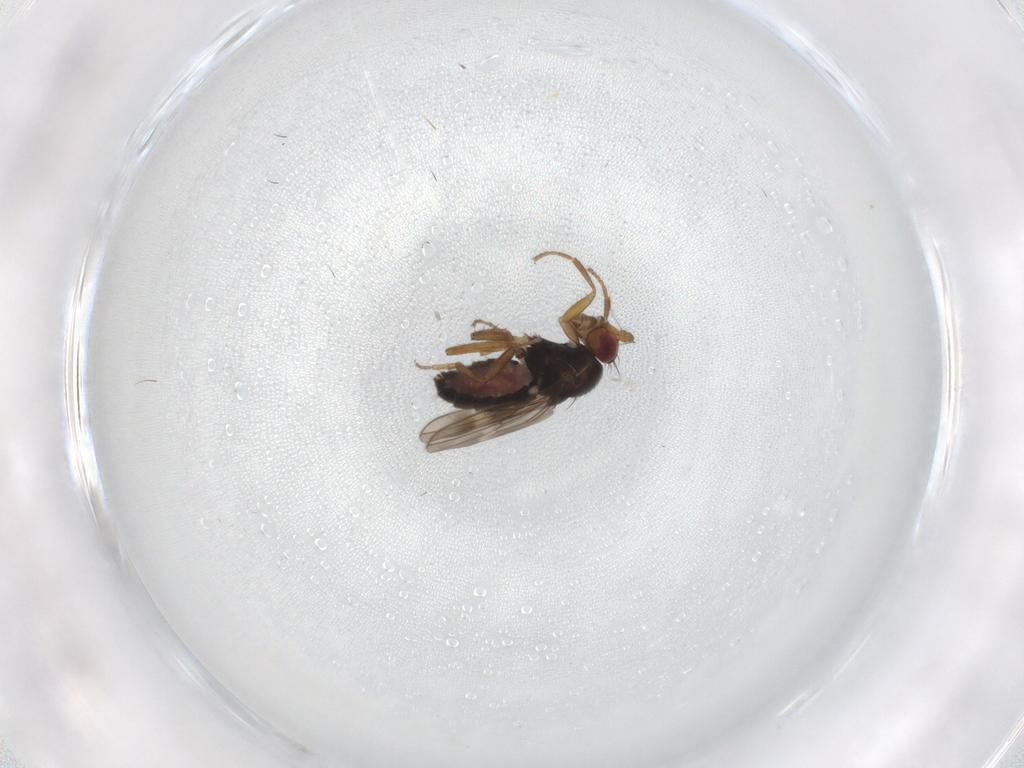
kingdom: Animalia
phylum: Arthropoda
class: Insecta
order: Diptera
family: Sphaeroceridae
